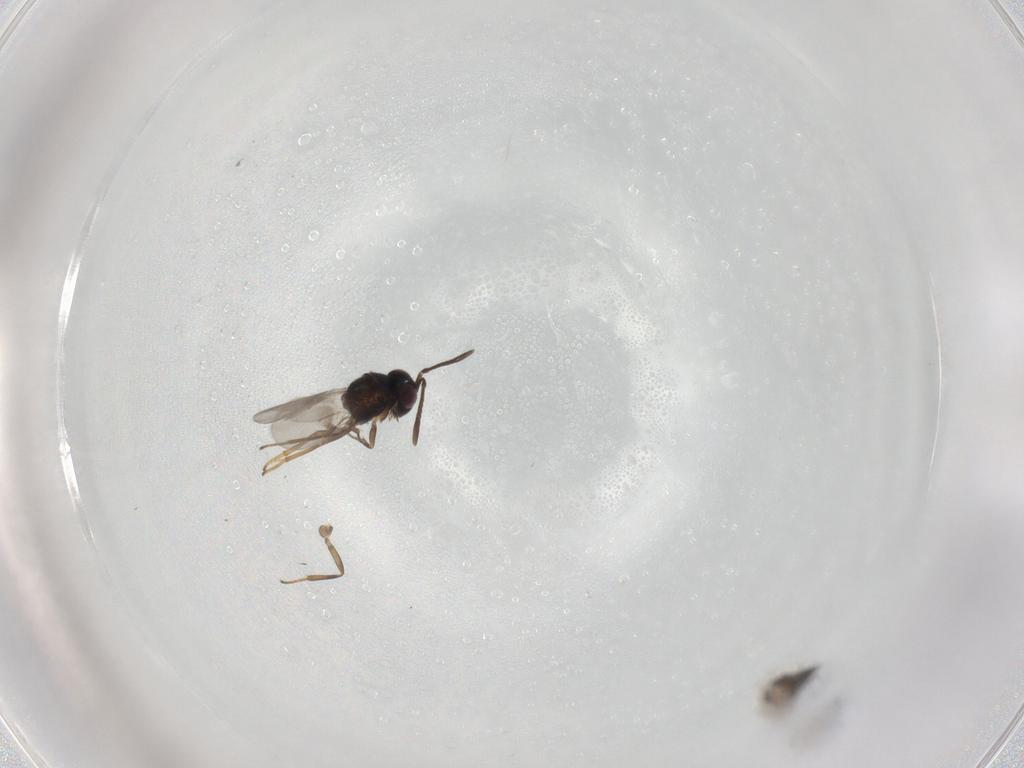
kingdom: Animalia
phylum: Arthropoda
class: Insecta
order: Hymenoptera
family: Encyrtidae
